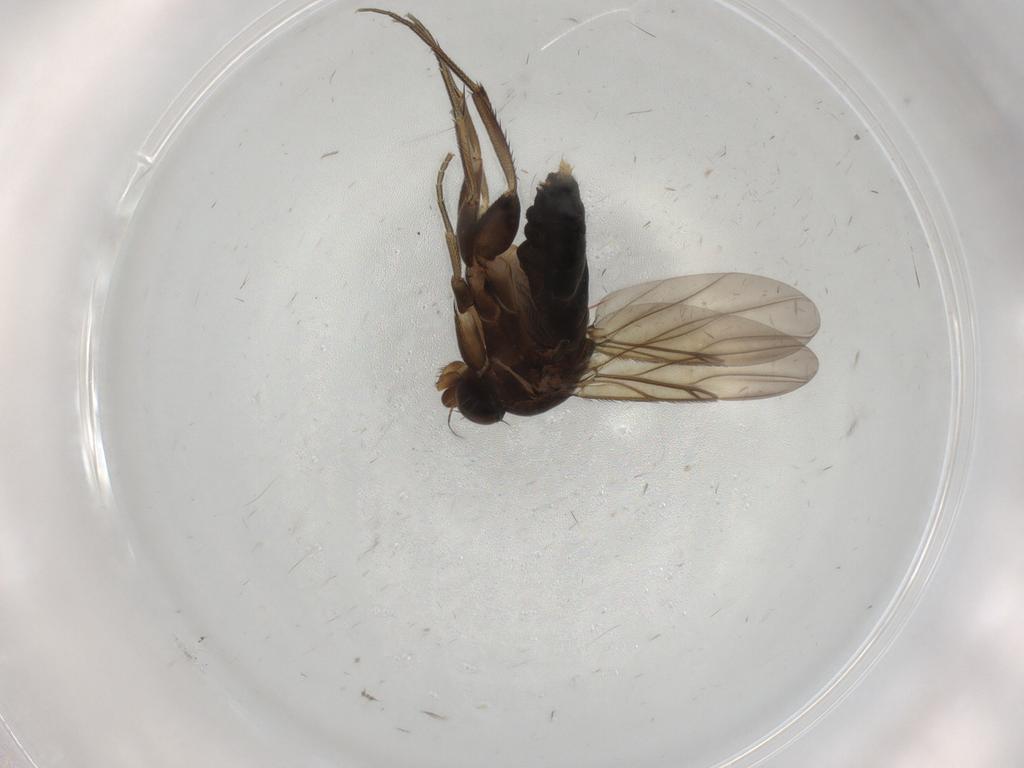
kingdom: Animalia
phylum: Arthropoda
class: Insecta
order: Diptera
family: Phoridae
